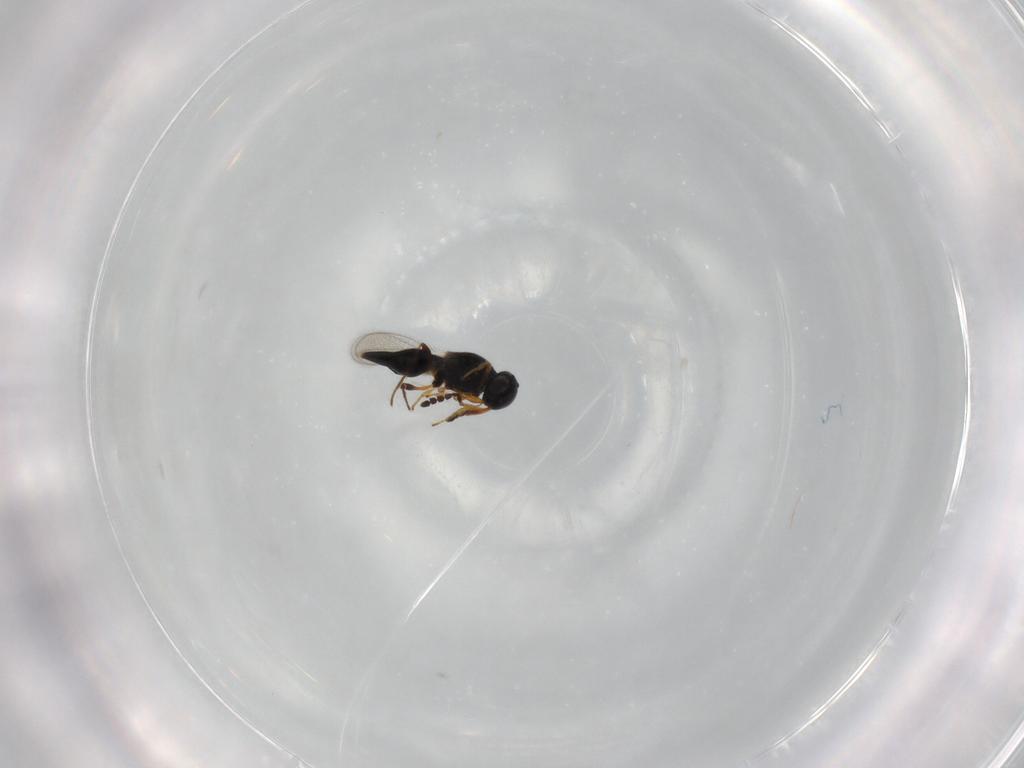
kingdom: Animalia
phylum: Arthropoda
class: Insecta
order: Hymenoptera
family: Platygastridae
